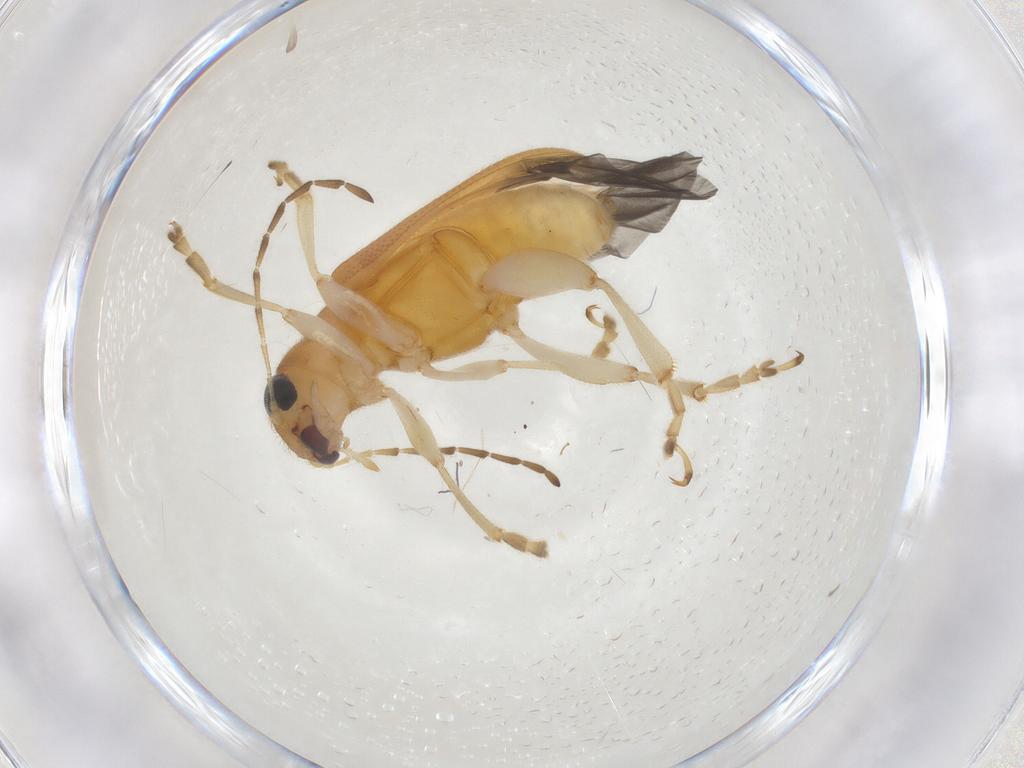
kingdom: Animalia
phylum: Arthropoda
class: Insecta
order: Coleoptera
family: Chrysomelidae
